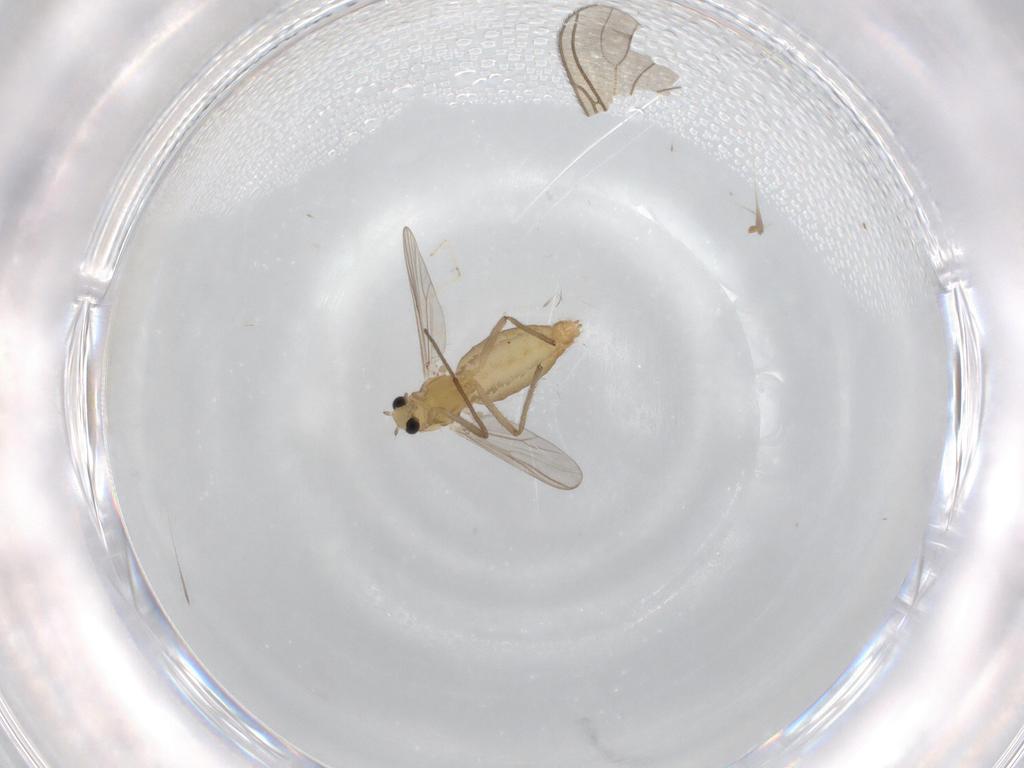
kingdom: Animalia
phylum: Arthropoda
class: Insecta
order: Diptera
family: Chironomidae
